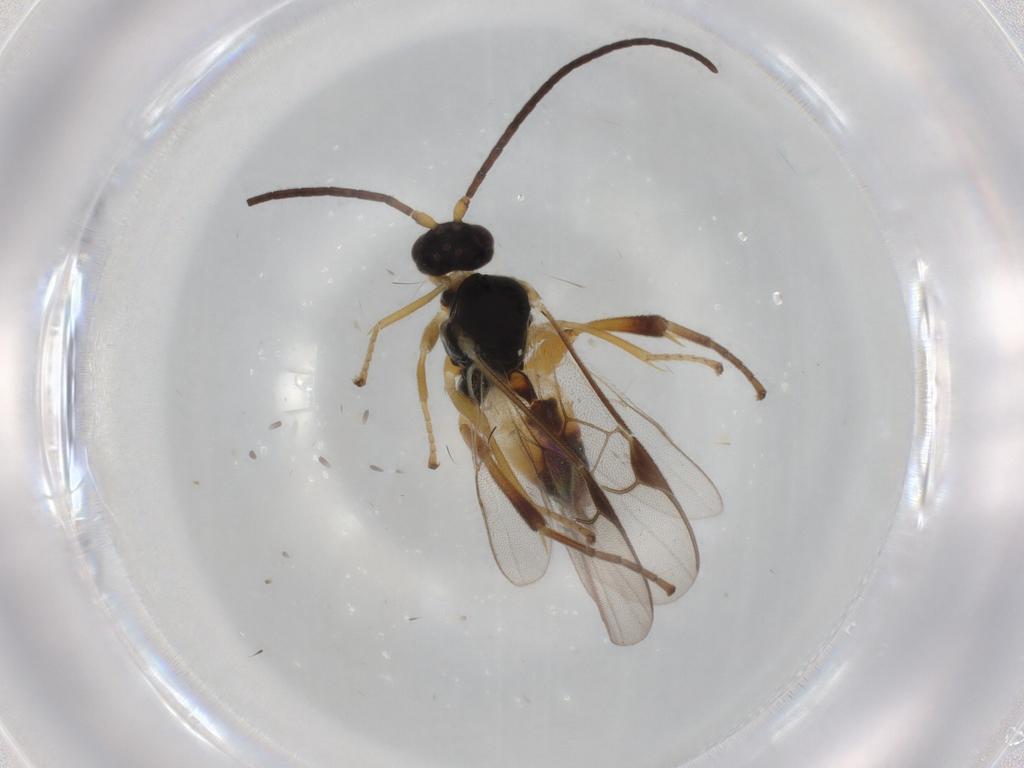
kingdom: Animalia
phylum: Arthropoda
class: Insecta
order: Hymenoptera
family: Braconidae
